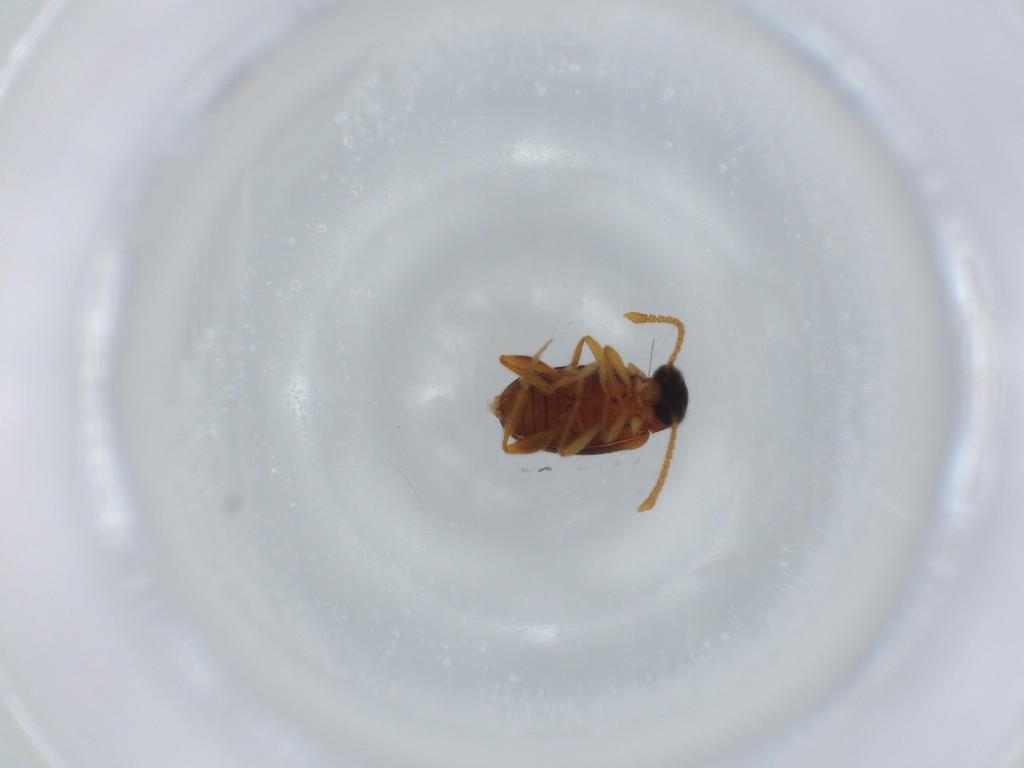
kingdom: Animalia
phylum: Arthropoda
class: Insecta
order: Coleoptera
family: Aderidae
